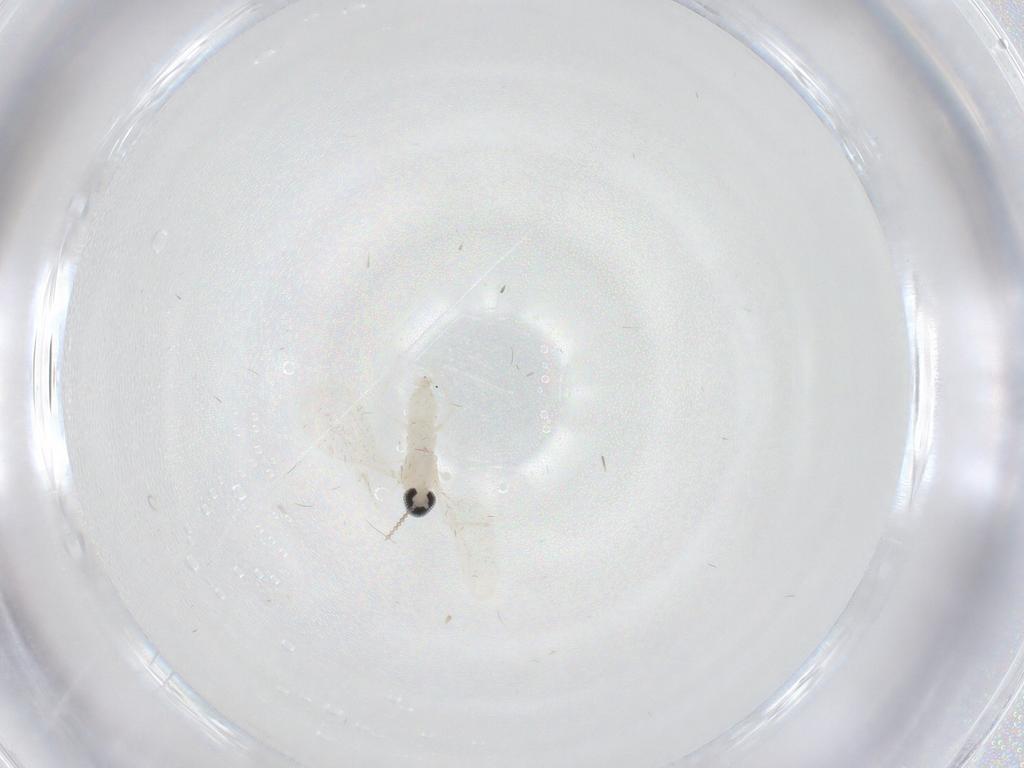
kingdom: Animalia
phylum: Arthropoda
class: Insecta
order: Diptera
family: Cecidomyiidae
